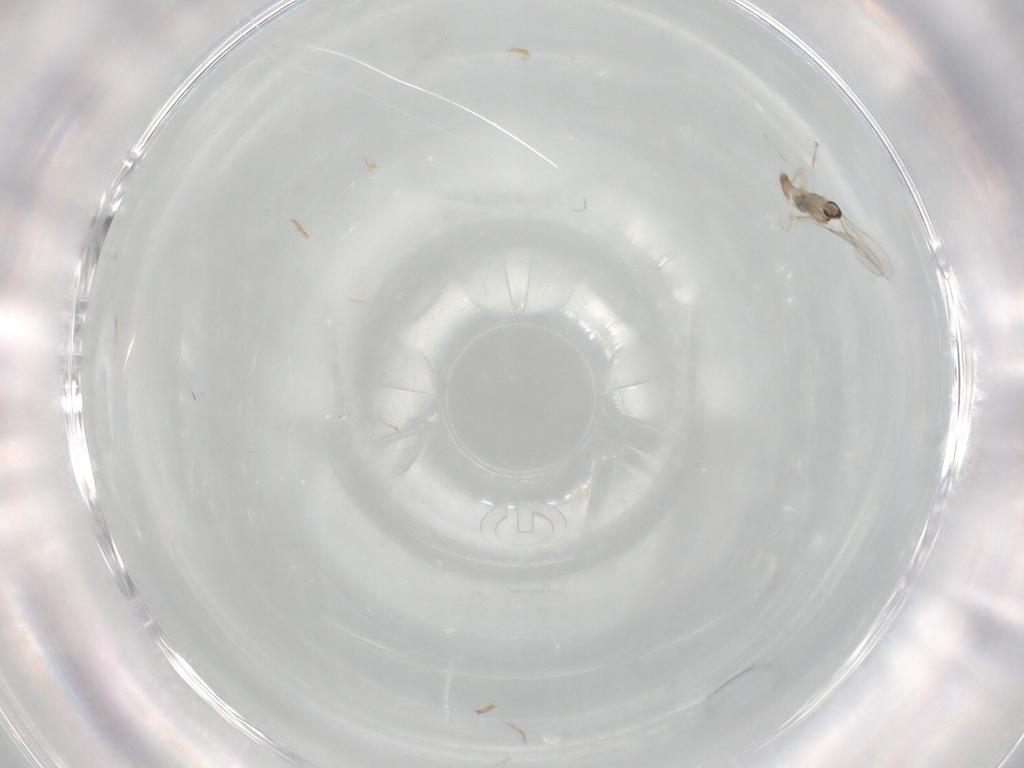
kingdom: Animalia
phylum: Arthropoda
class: Insecta
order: Diptera
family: Cecidomyiidae
